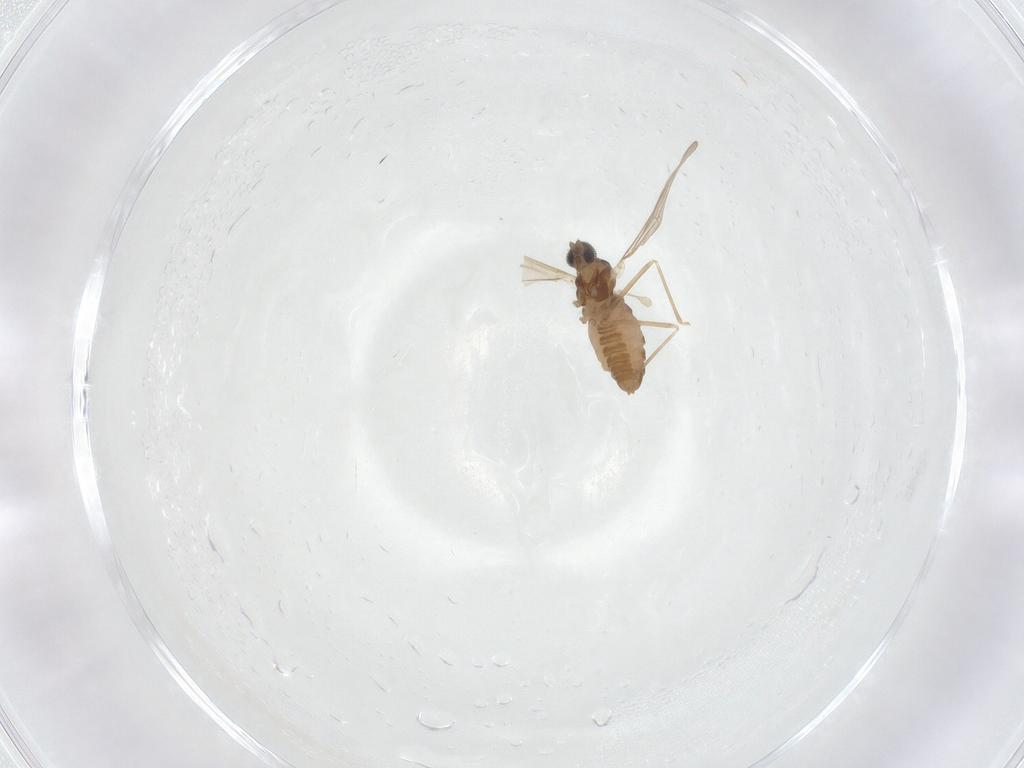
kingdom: Animalia
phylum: Arthropoda
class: Insecta
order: Diptera
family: Cecidomyiidae
